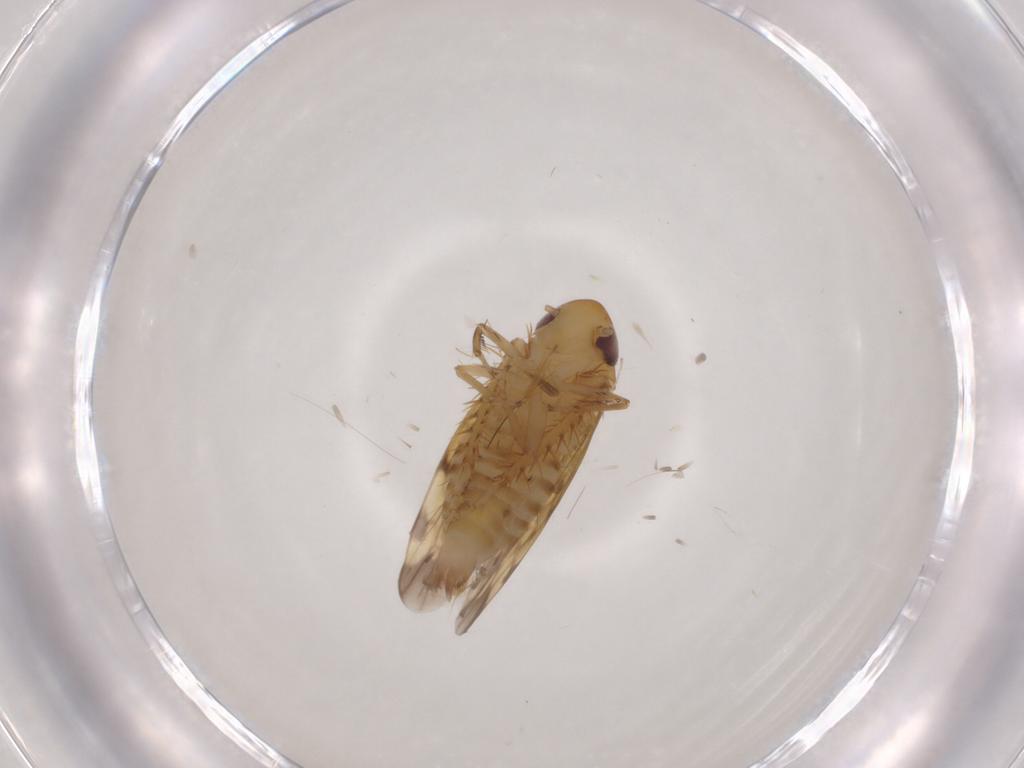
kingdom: Animalia
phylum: Arthropoda
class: Insecta
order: Hemiptera
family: Cicadellidae
